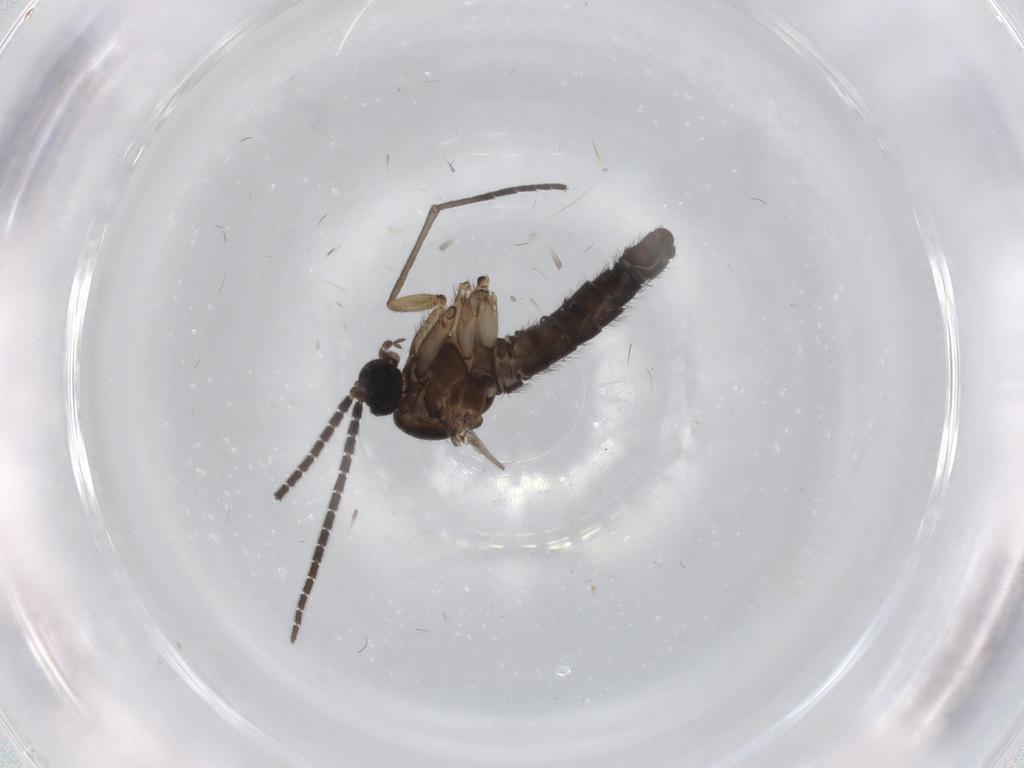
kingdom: Animalia
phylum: Arthropoda
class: Insecta
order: Diptera
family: Sciaridae
